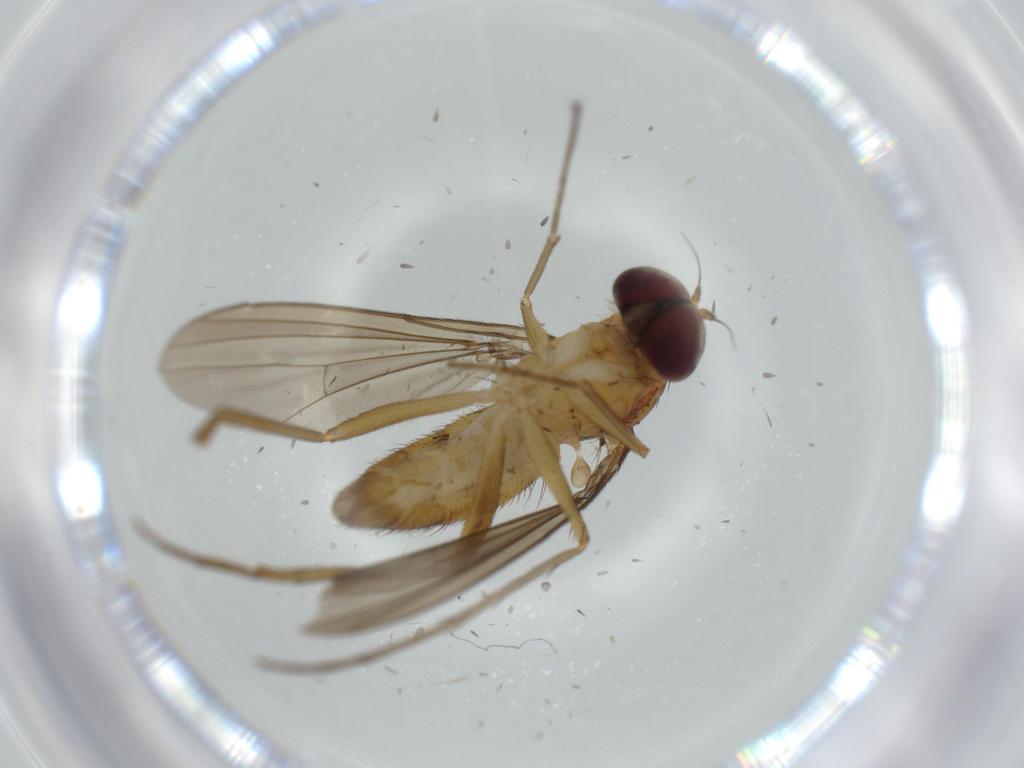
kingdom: Animalia
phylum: Arthropoda
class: Insecta
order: Diptera
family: Dolichopodidae
